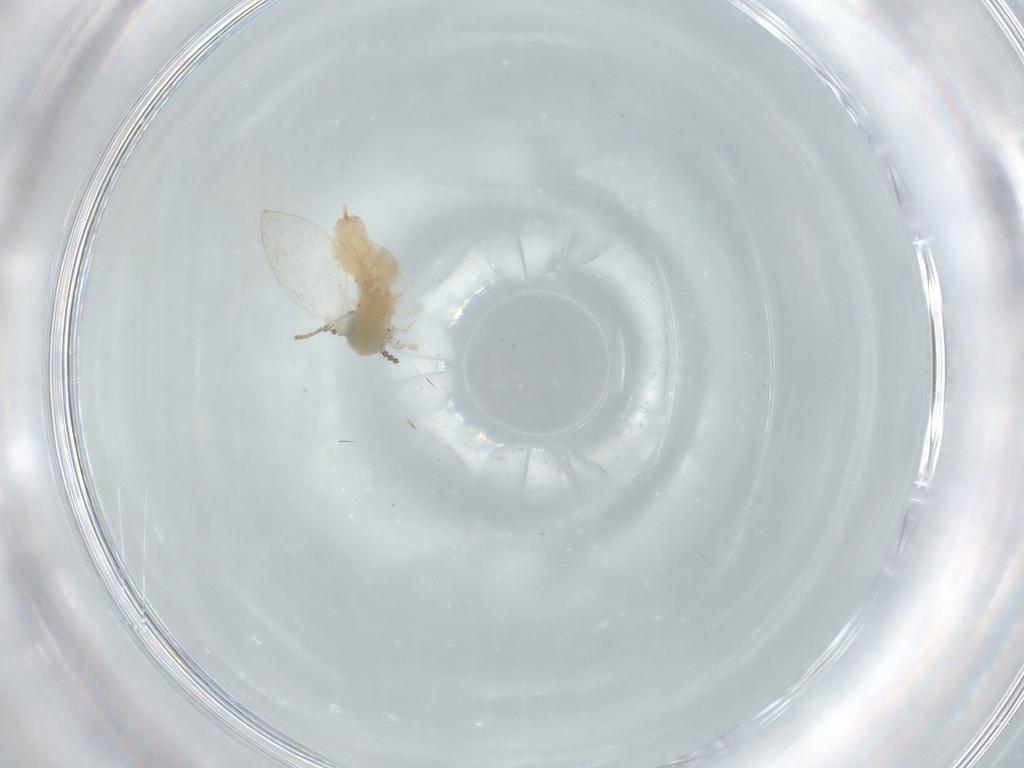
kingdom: Animalia
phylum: Arthropoda
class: Insecta
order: Diptera
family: Psychodidae
